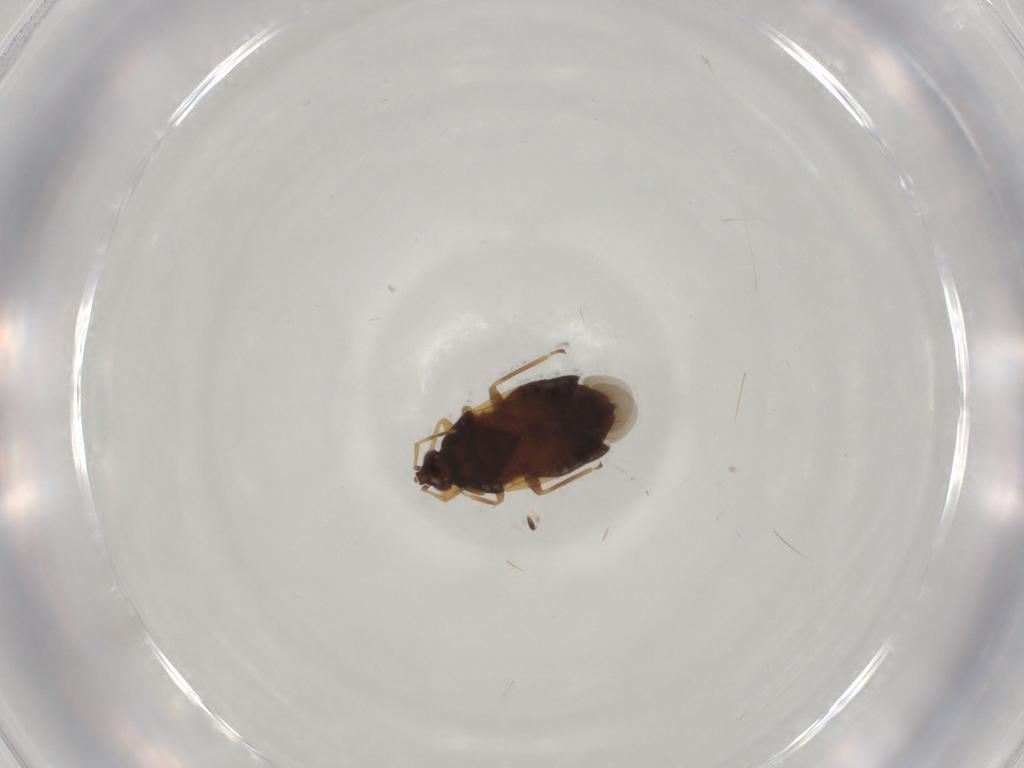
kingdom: Animalia
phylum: Arthropoda
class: Insecta
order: Hemiptera
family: Anthocoridae
